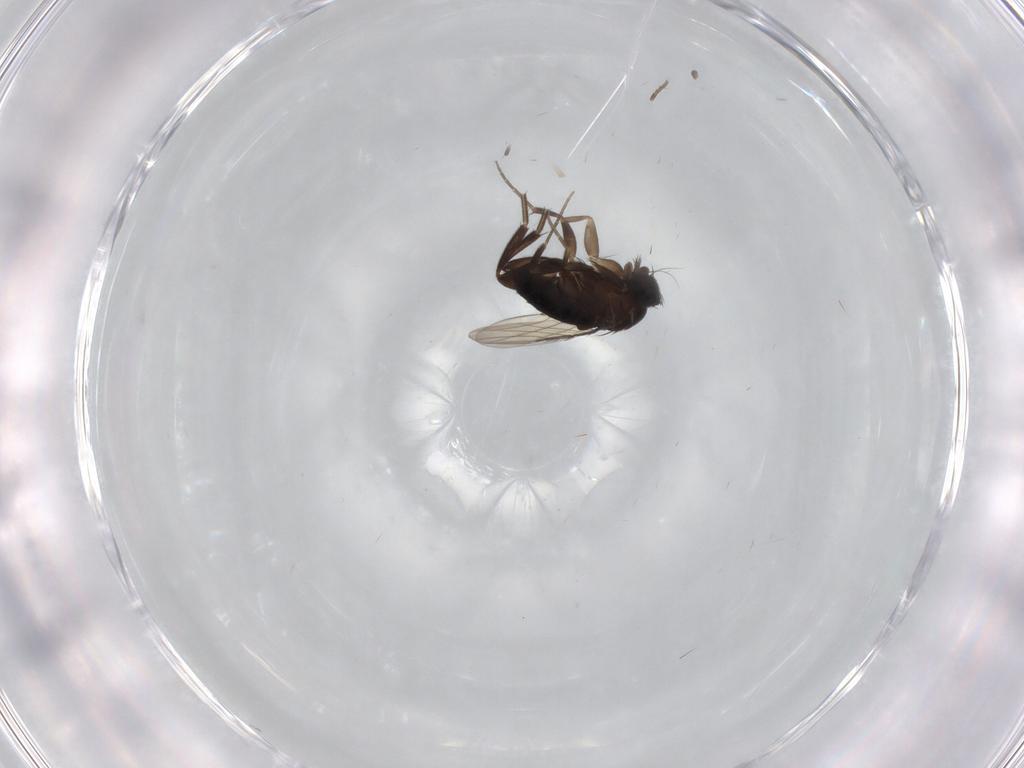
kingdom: Animalia
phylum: Arthropoda
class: Insecta
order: Diptera
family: Phoridae
